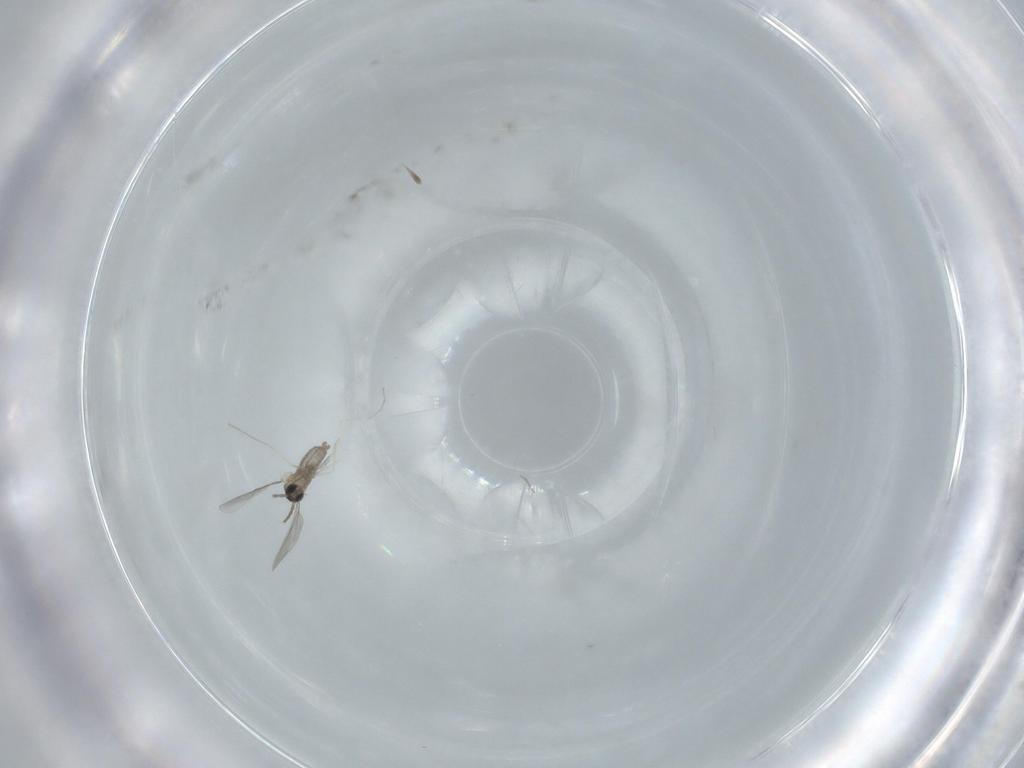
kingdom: Animalia
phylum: Arthropoda
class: Insecta
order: Diptera
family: Cecidomyiidae
